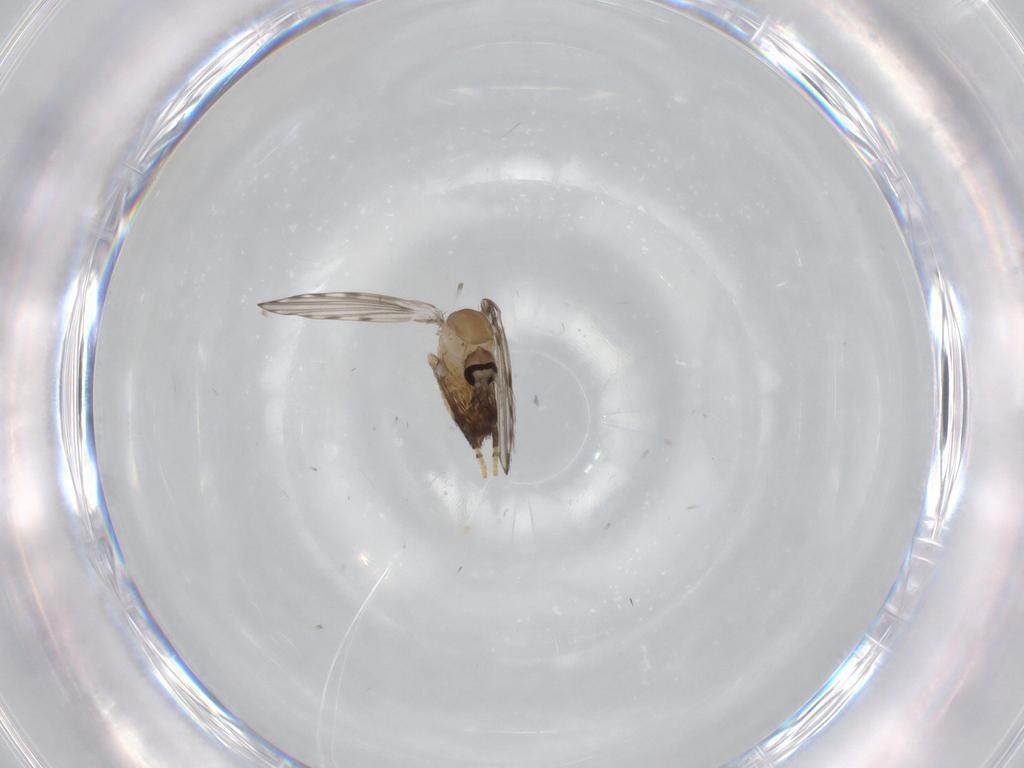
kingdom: Animalia
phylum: Arthropoda
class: Insecta
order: Diptera
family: Psychodidae
